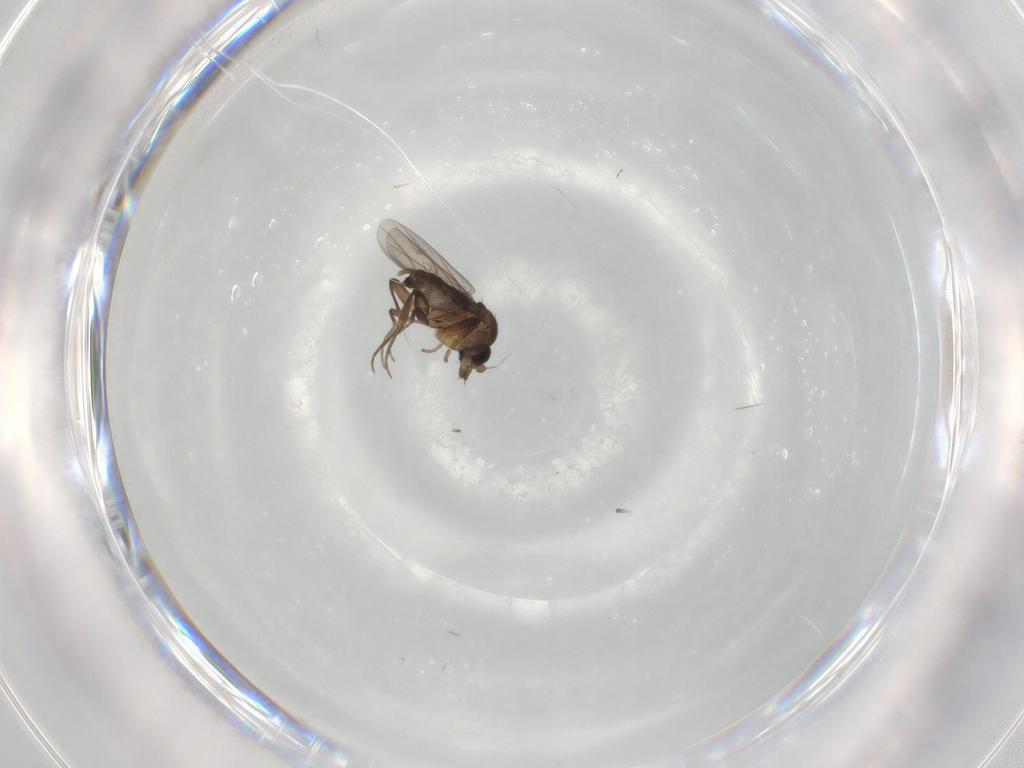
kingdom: Animalia
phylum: Arthropoda
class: Insecta
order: Diptera
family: Phoridae
